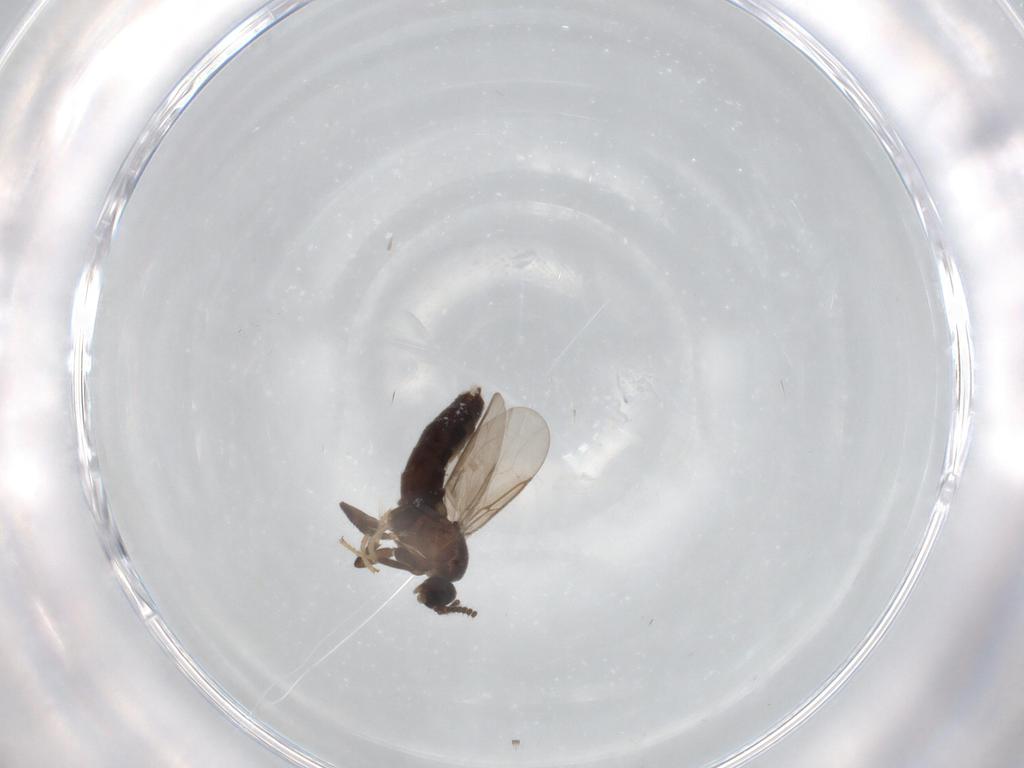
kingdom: Animalia
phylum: Arthropoda
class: Insecta
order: Diptera
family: Scatopsidae
